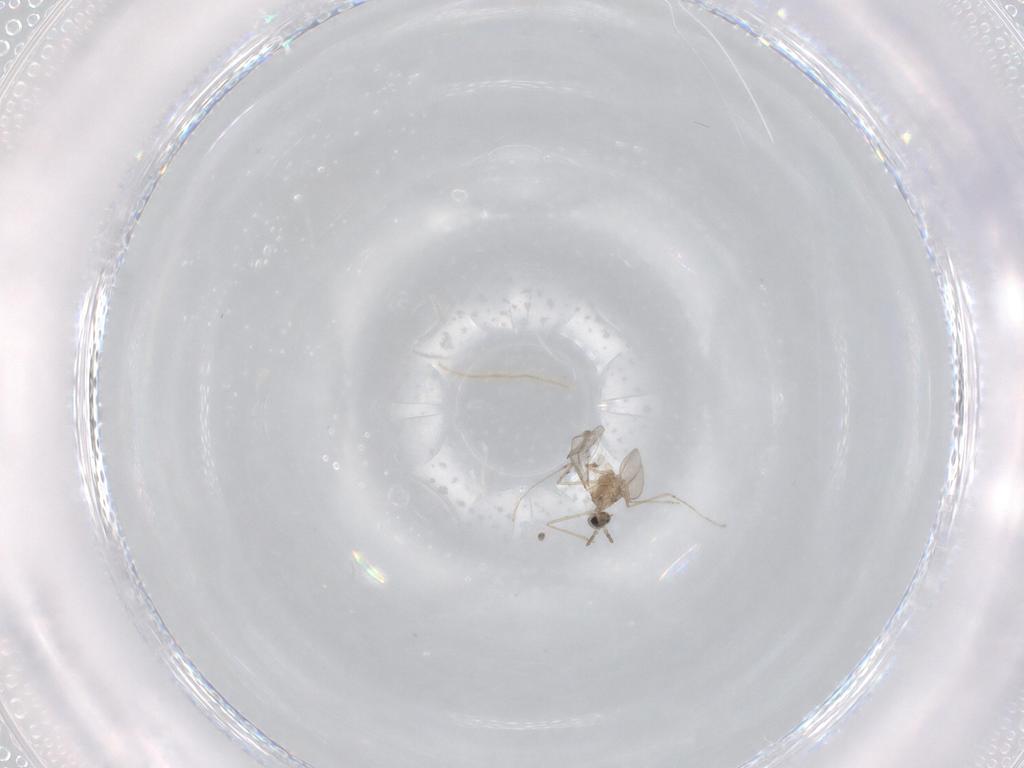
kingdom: Animalia
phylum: Arthropoda
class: Insecta
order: Diptera
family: Cecidomyiidae
